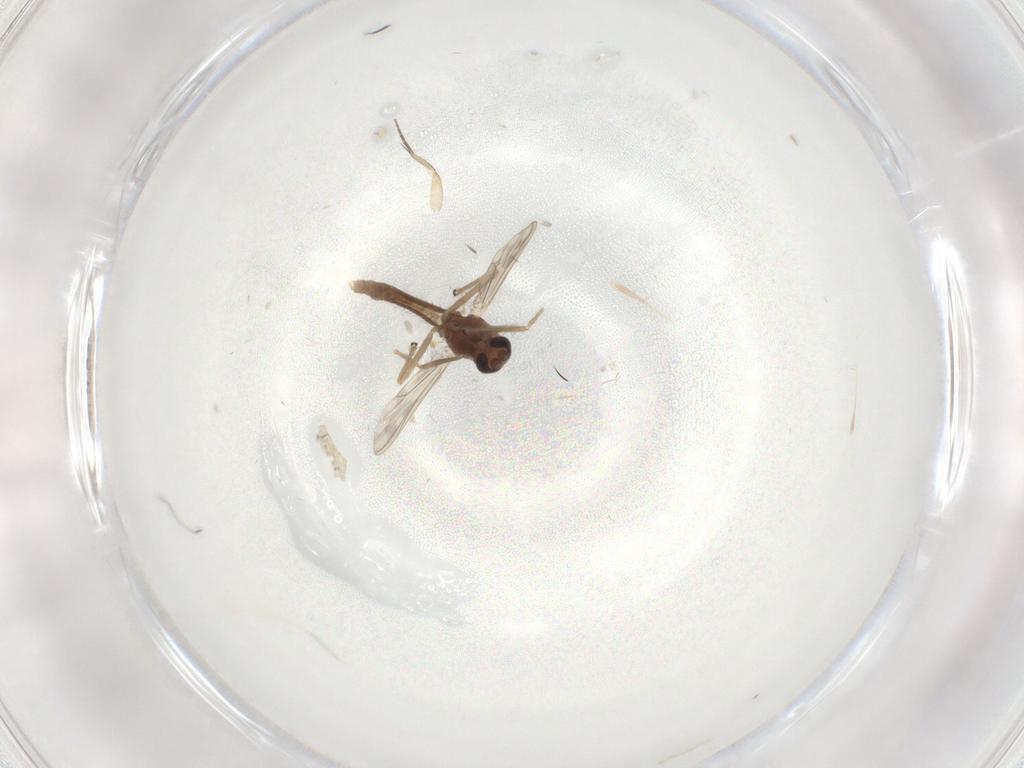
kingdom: Animalia
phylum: Arthropoda
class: Insecta
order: Diptera
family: Chironomidae
